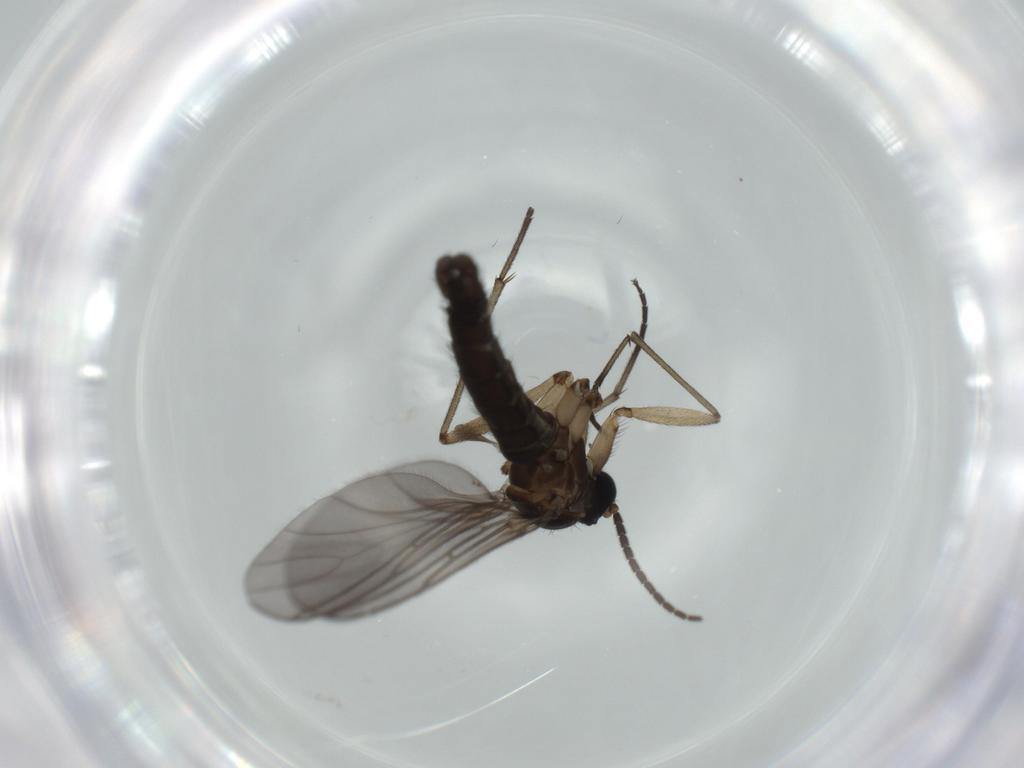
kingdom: Animalia
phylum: Arthropoda
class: Insecta
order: Diptera
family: Sciaridae
